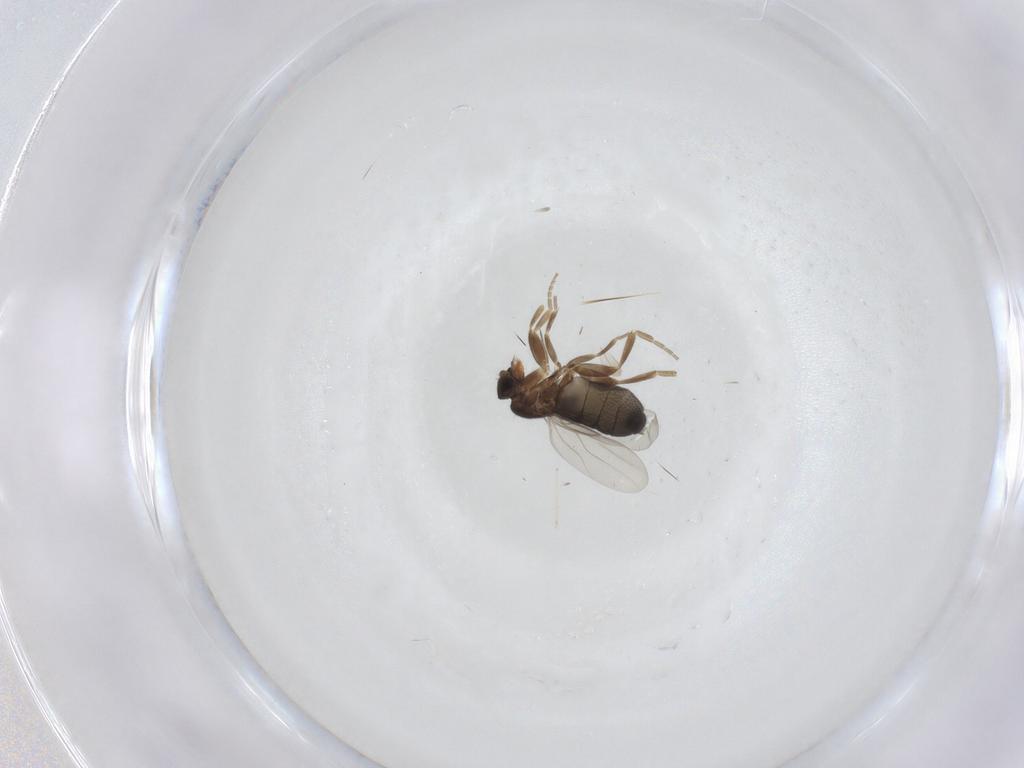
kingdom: Animalia
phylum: Arthropoda
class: Insecta
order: Diptera
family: Phoridae
